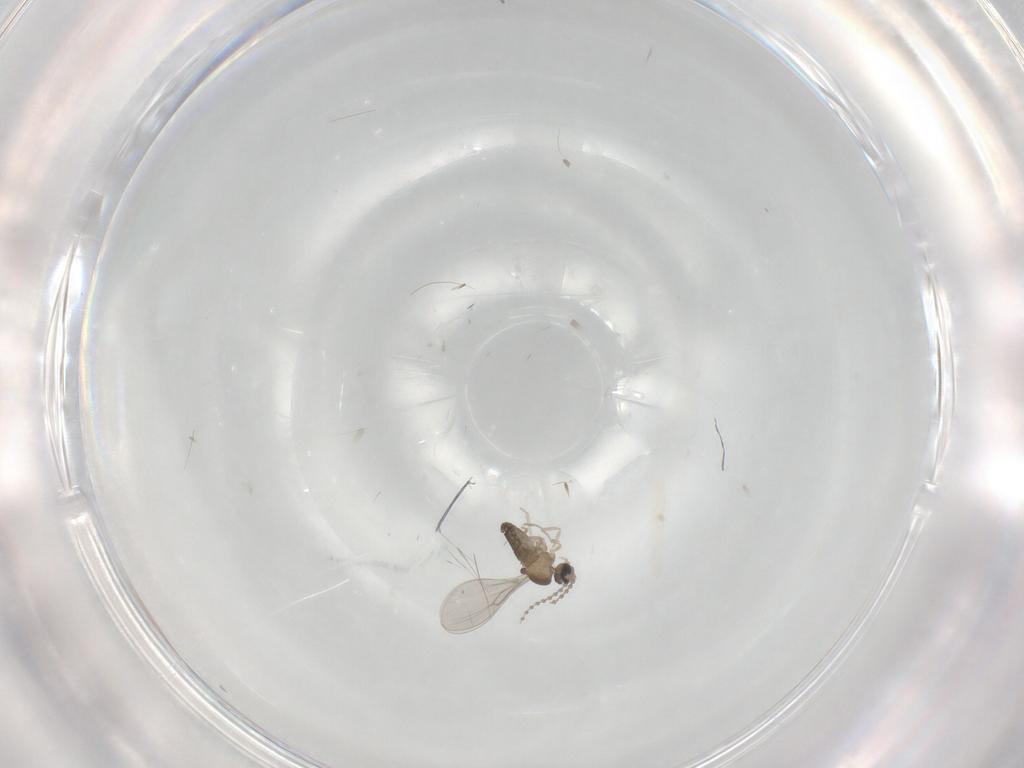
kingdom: Animalia
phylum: Arthropoda
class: Insecta
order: Diptera
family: Cecidomyiidae
